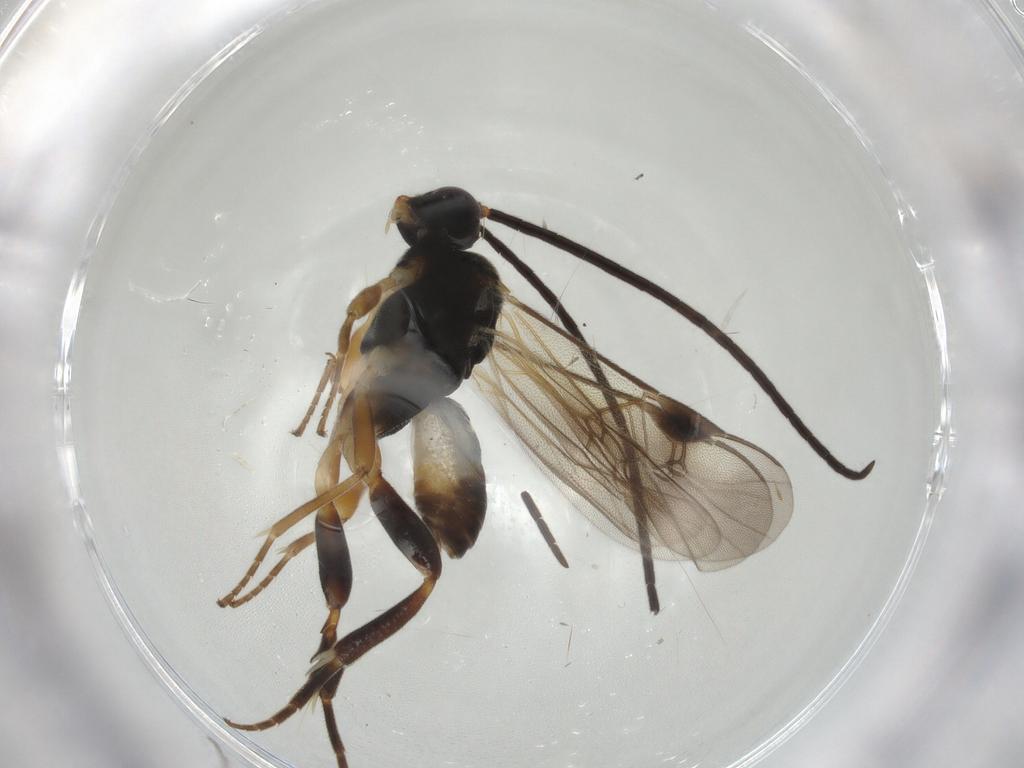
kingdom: Animalia
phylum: Arthropoda
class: Insecta
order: Hymenoptera
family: Braconidae
